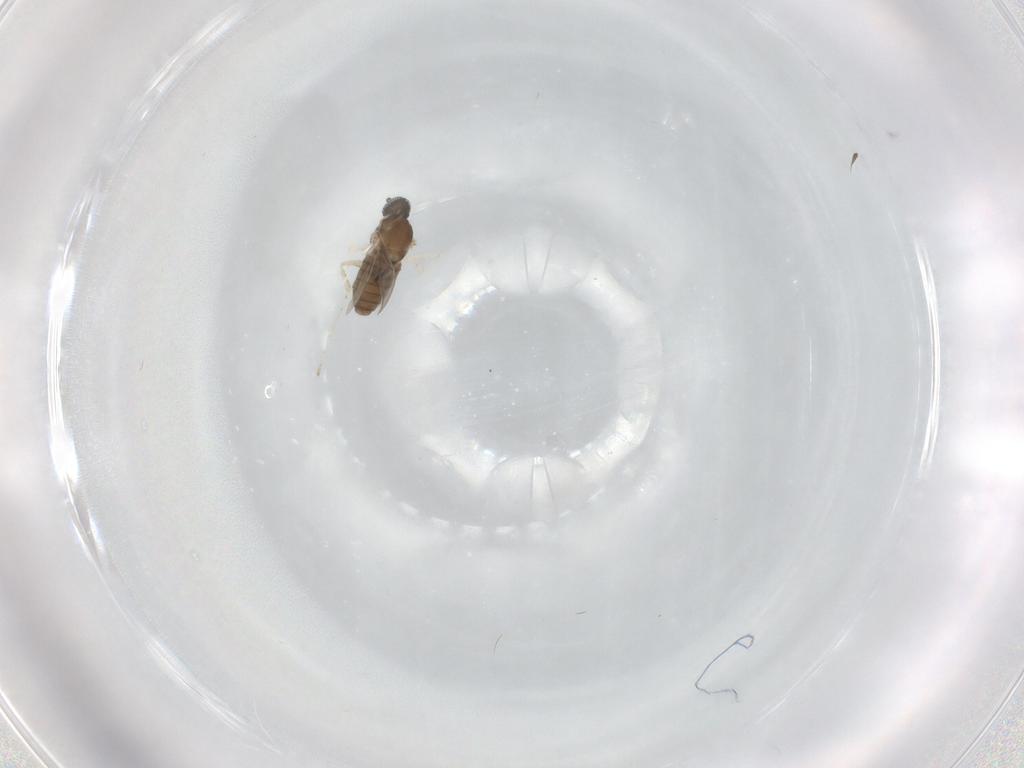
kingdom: Animalia
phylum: Arthropoda
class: Insecta
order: Diptera
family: Cecidomyiidae
